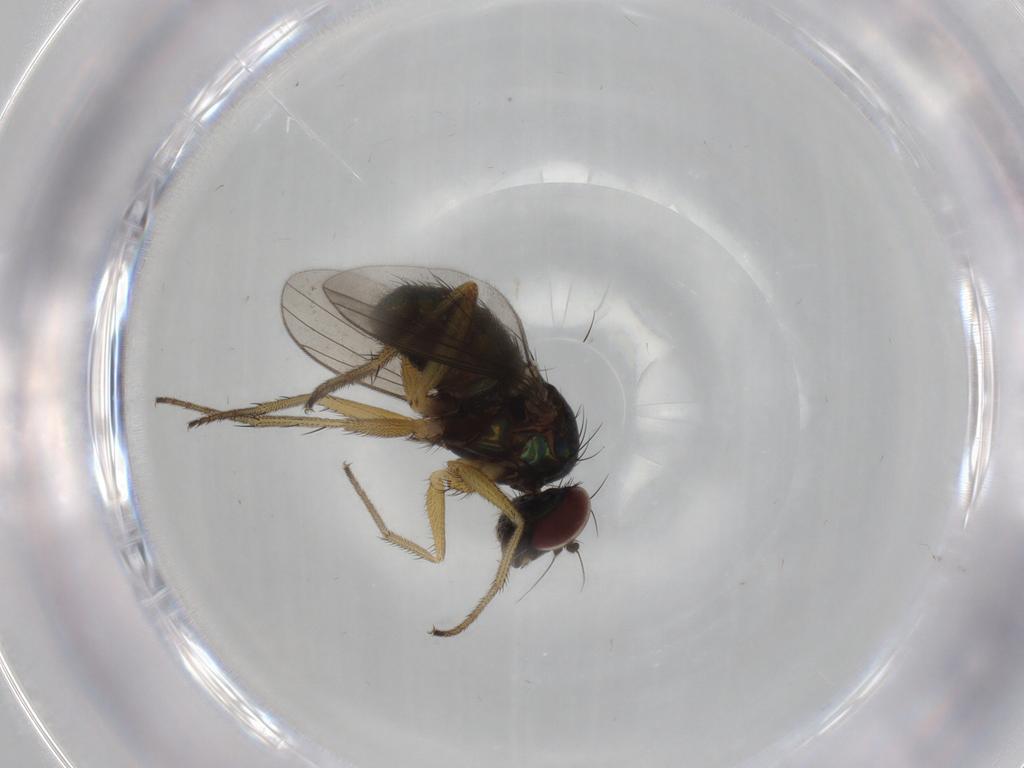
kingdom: Animalia
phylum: Arthropoda
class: Insecta
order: Diptera
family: Dolichopodidae
